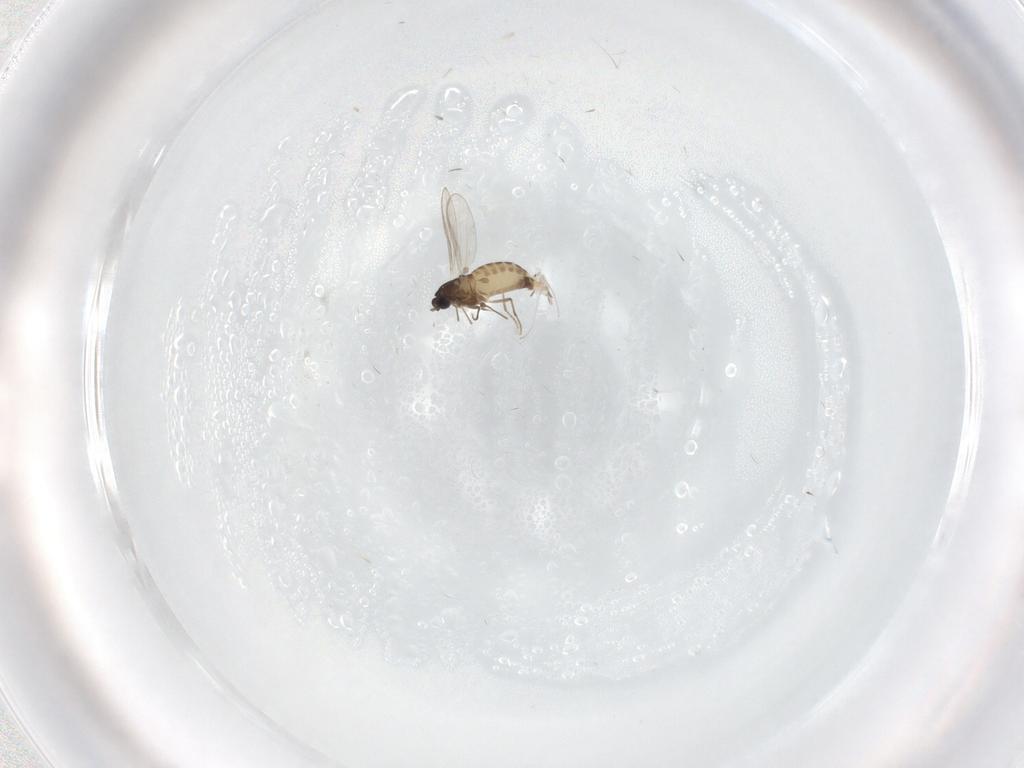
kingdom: Animalia
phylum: Arthropoda
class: Insecta
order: Diptera
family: Chironomidae
